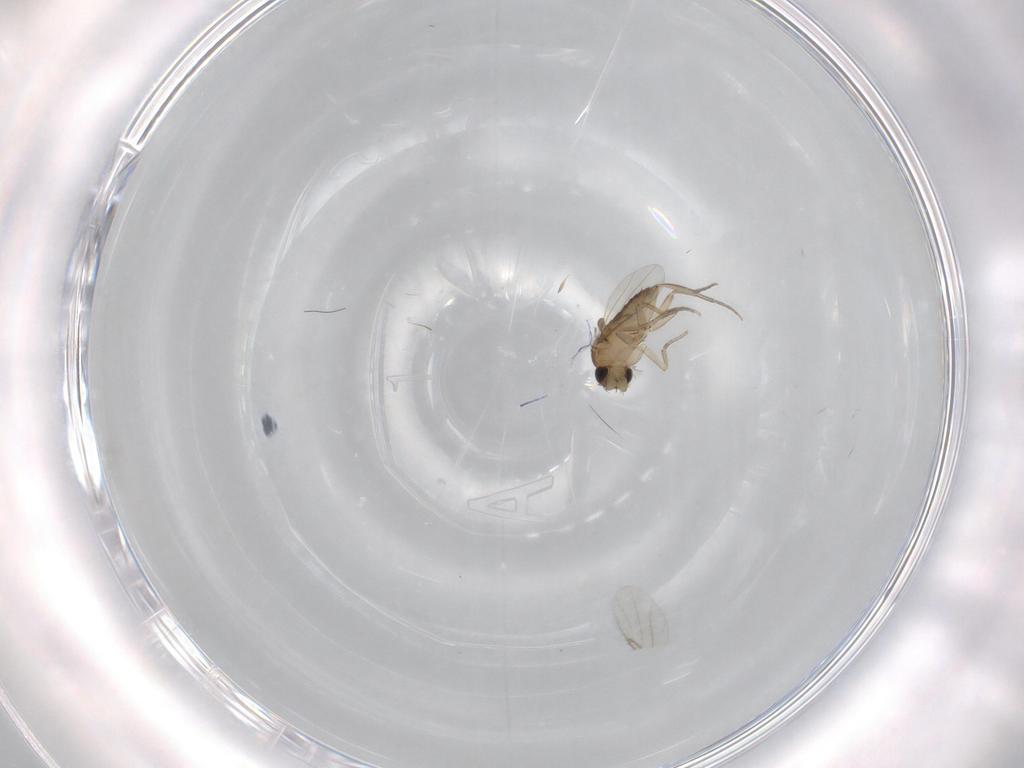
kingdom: Animalia
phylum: Arthropoda
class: Insecta
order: Diptera
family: Phoridae
